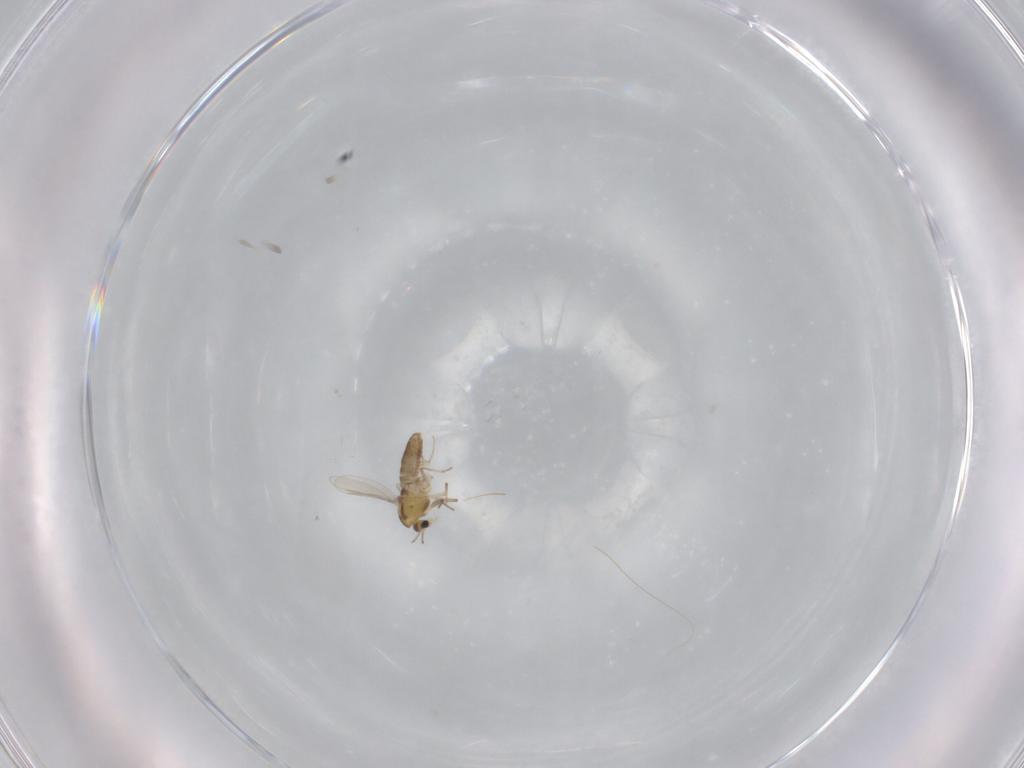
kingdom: Animalia
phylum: Arthropoda
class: Insecta
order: Diptera
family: Chironomidae
